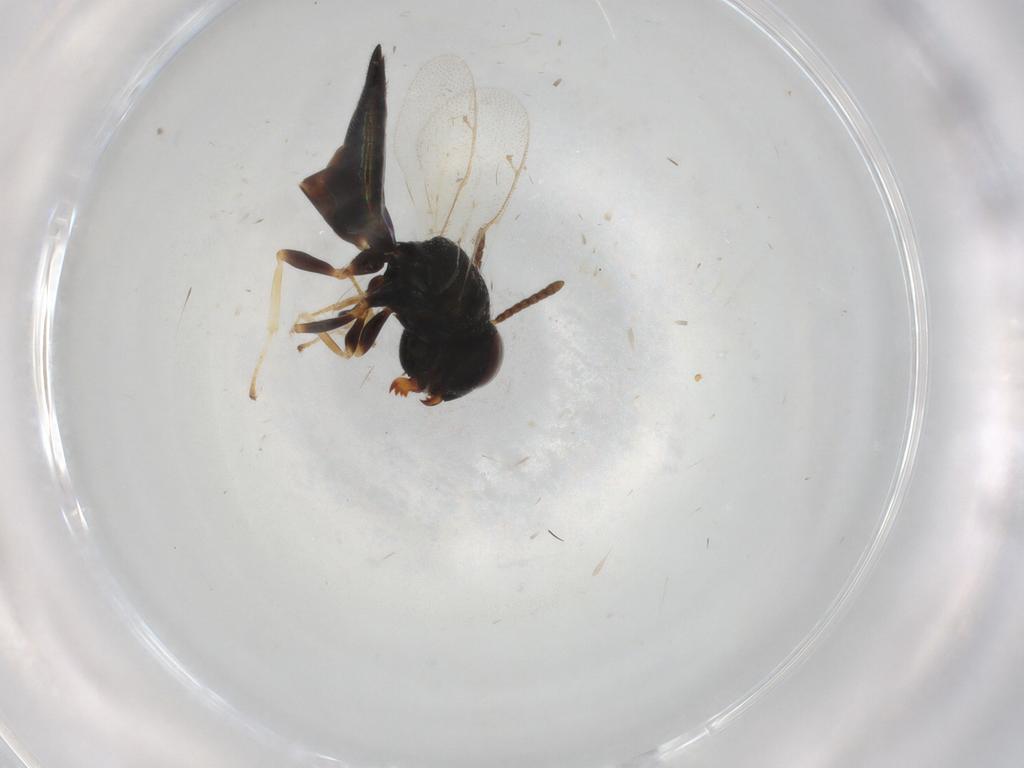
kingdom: Animalia
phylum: Arthropoda
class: Insecta
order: Hymenoptera
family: Pteromalidae
